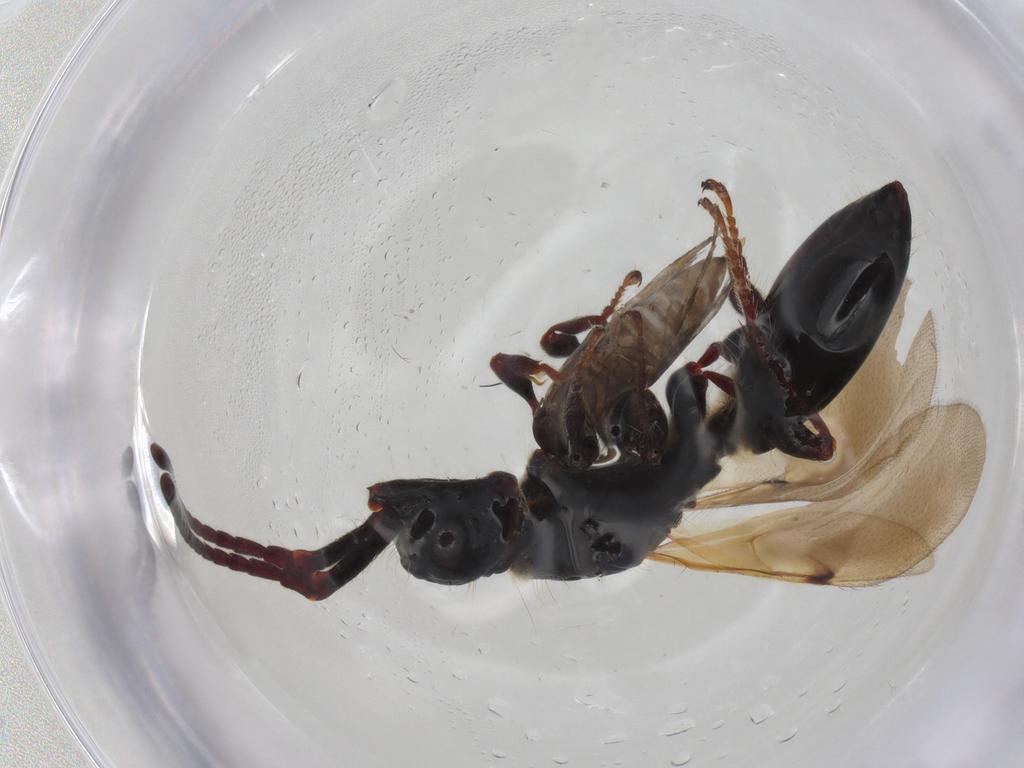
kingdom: Animalia
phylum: Arthropoda
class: Insecta
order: Hymenoptera
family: Diapriidae
